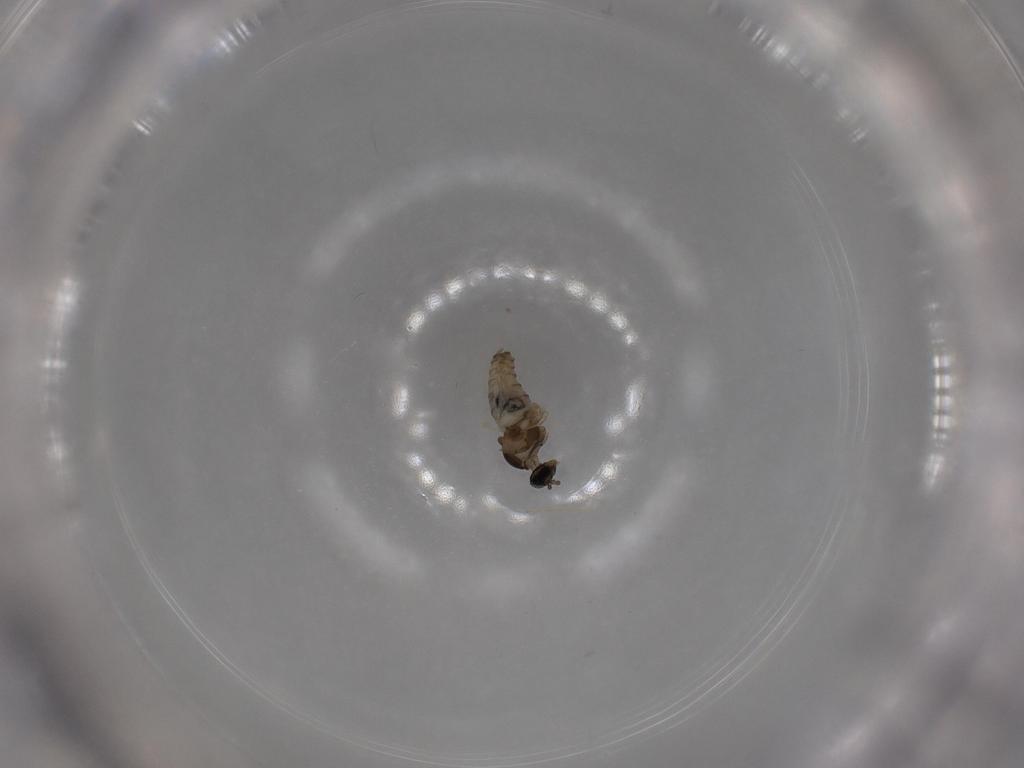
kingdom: Animalia
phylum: Arthropoda
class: Insecta
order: Diptera
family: Cecidomyiidae
